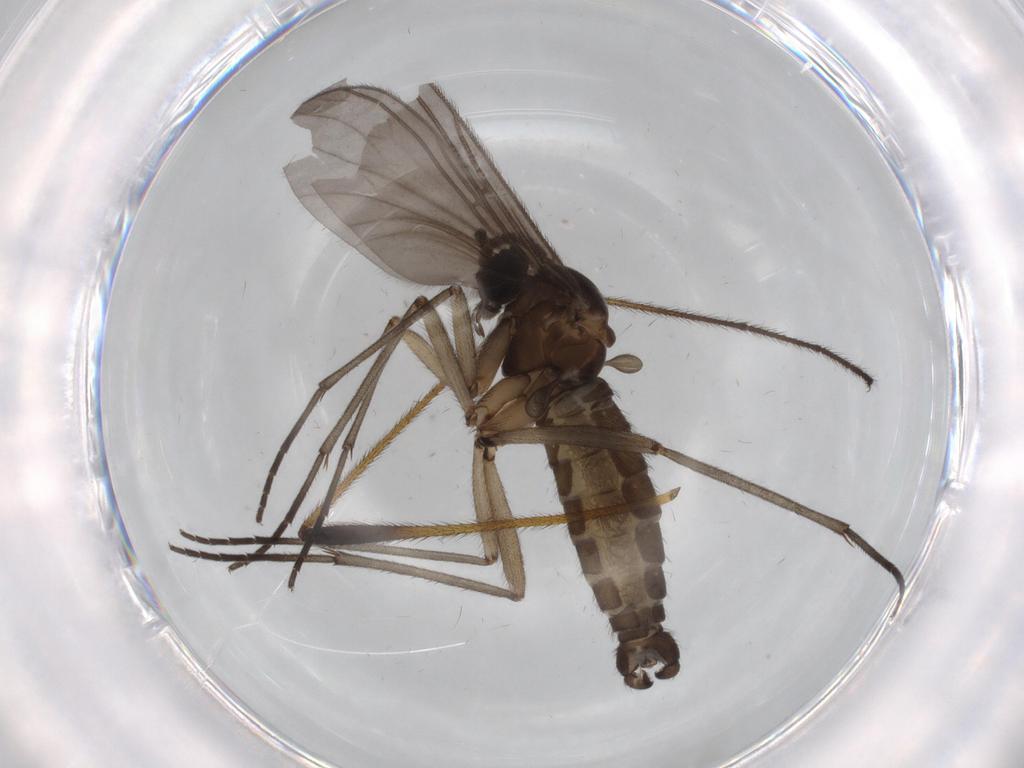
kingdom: Animalia
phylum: Arthropoda
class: Insecta
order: Diptera
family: Sciaridae
